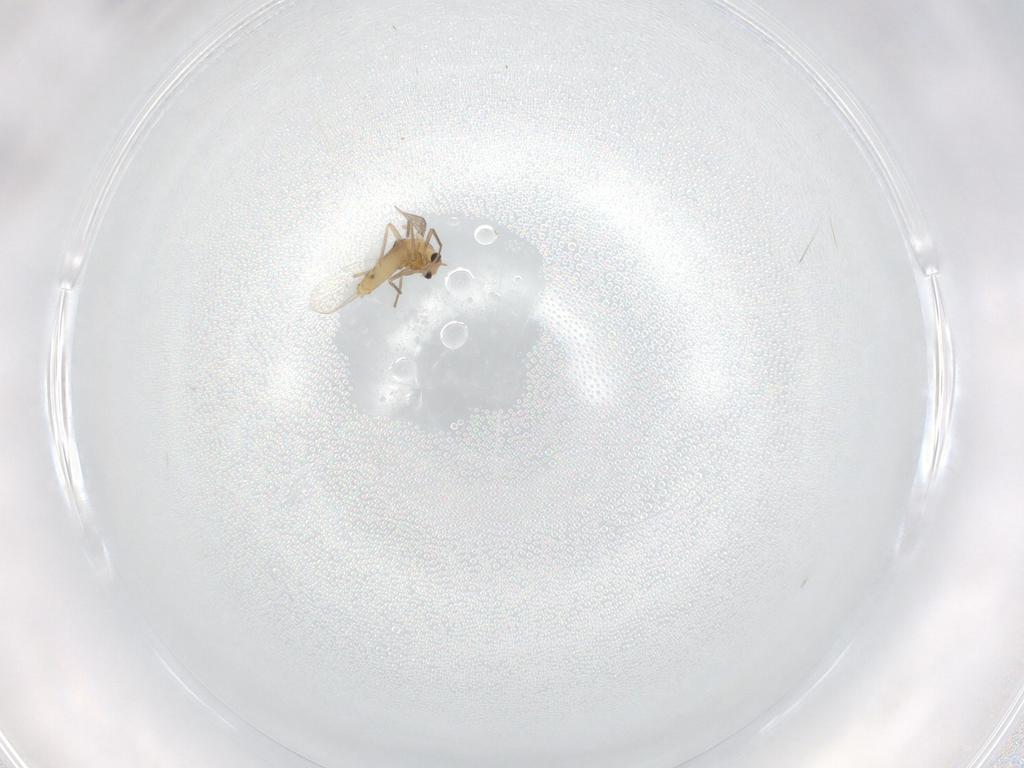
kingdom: Animalia
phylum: Arthropoda
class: Insecta
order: Diptera
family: Chironomidae
